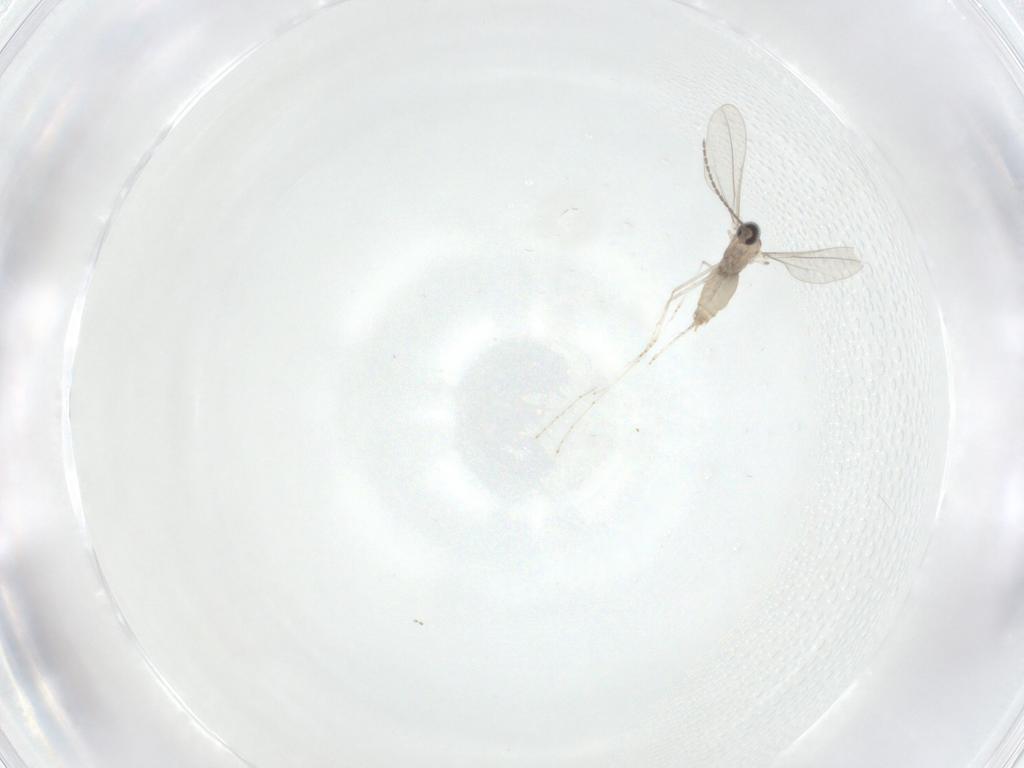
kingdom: Animalia
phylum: Arthropoda
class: Insecta
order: Diptera
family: Cecidomyiidae
